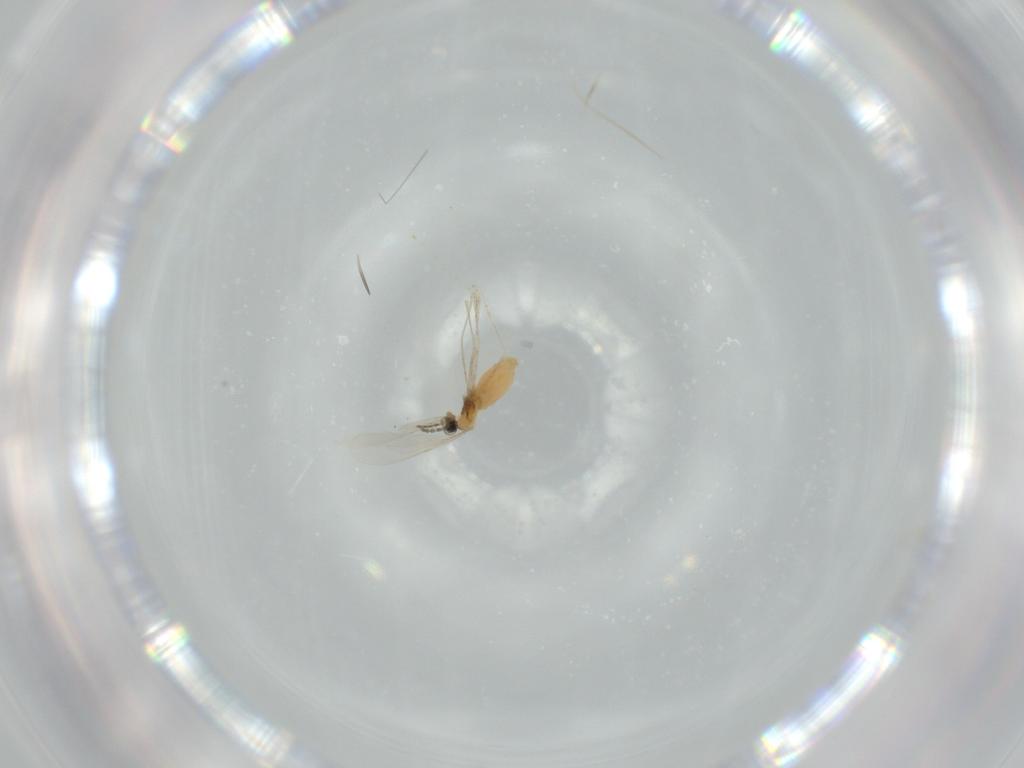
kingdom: Animalia
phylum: Arthropoda
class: Insecta
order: Diptera
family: Cecidomyiidae
